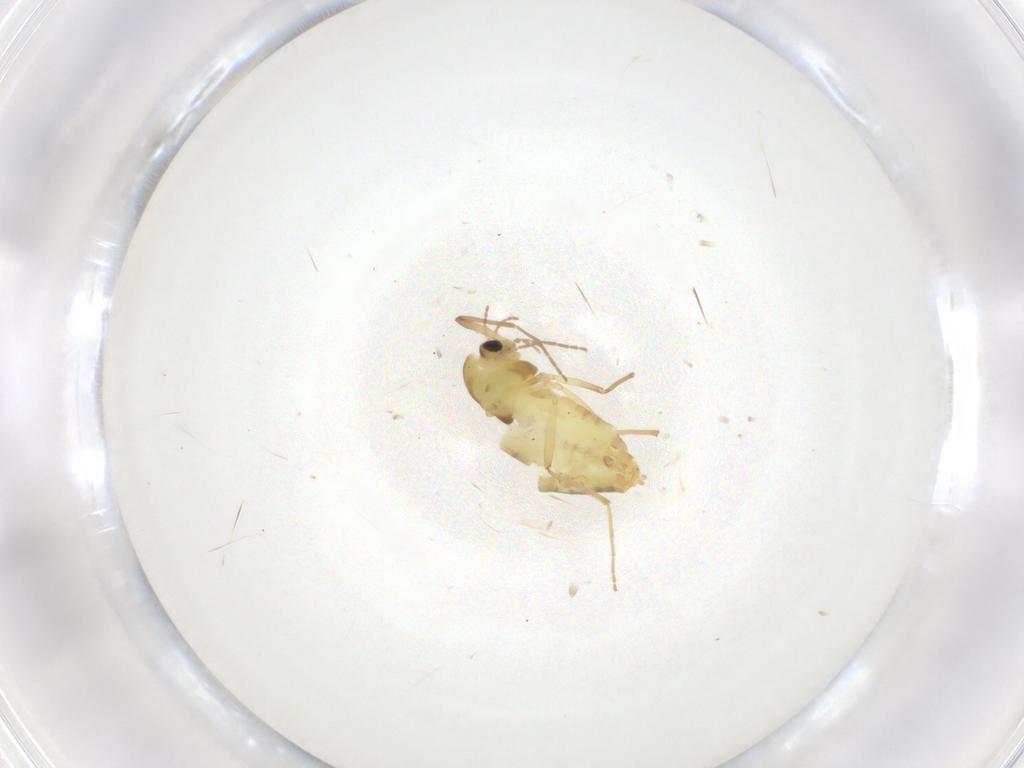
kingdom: Animalia
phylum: Arthropoda
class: Insecta
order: Diptera
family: Chironomidae
